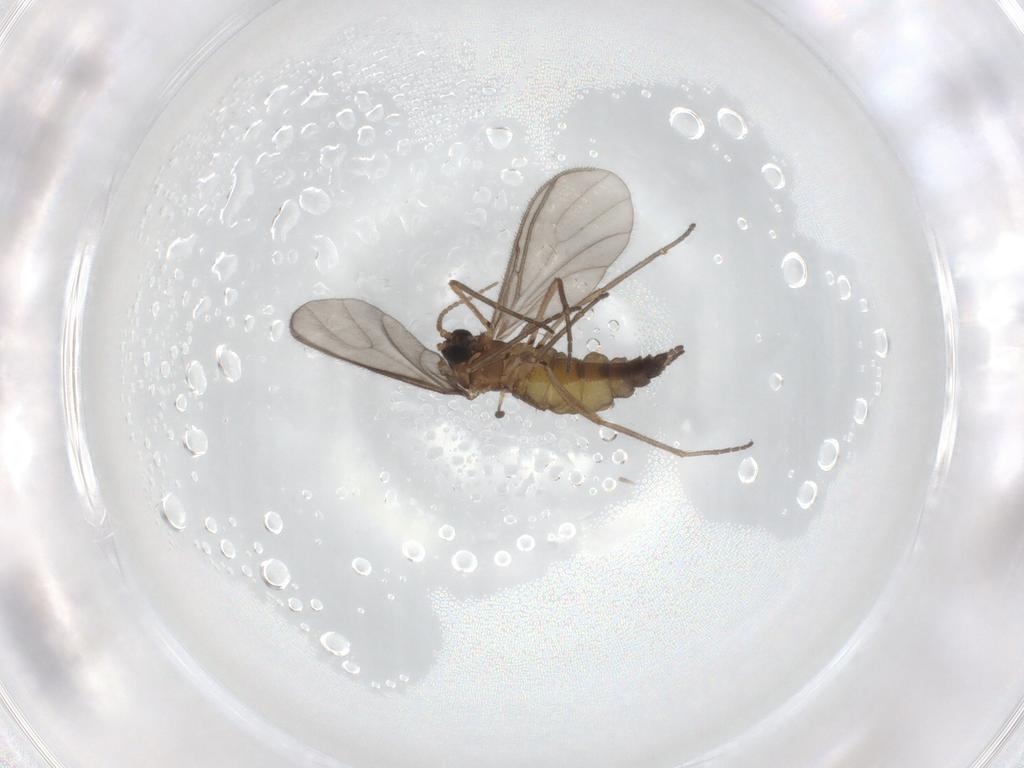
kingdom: Animalia
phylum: Arthropoda
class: Insecta
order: Diptera
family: Sciaridae
